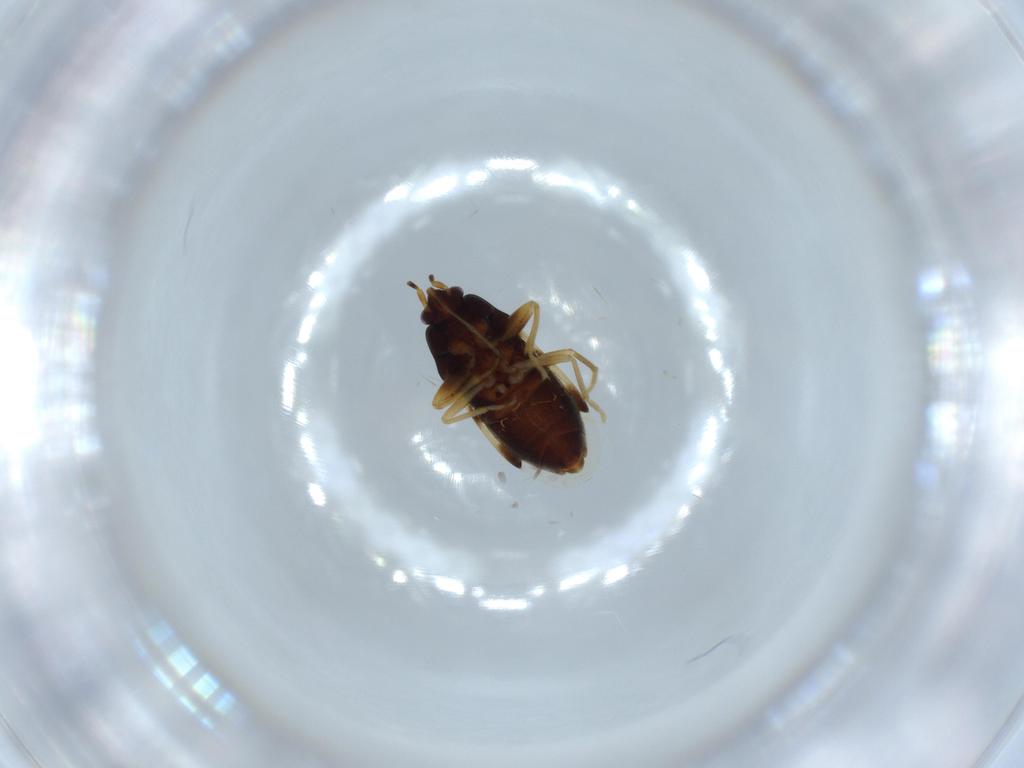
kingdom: Animalia
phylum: Arthropoda
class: Insecta
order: Hemiptera
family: Rhyparochromidae
